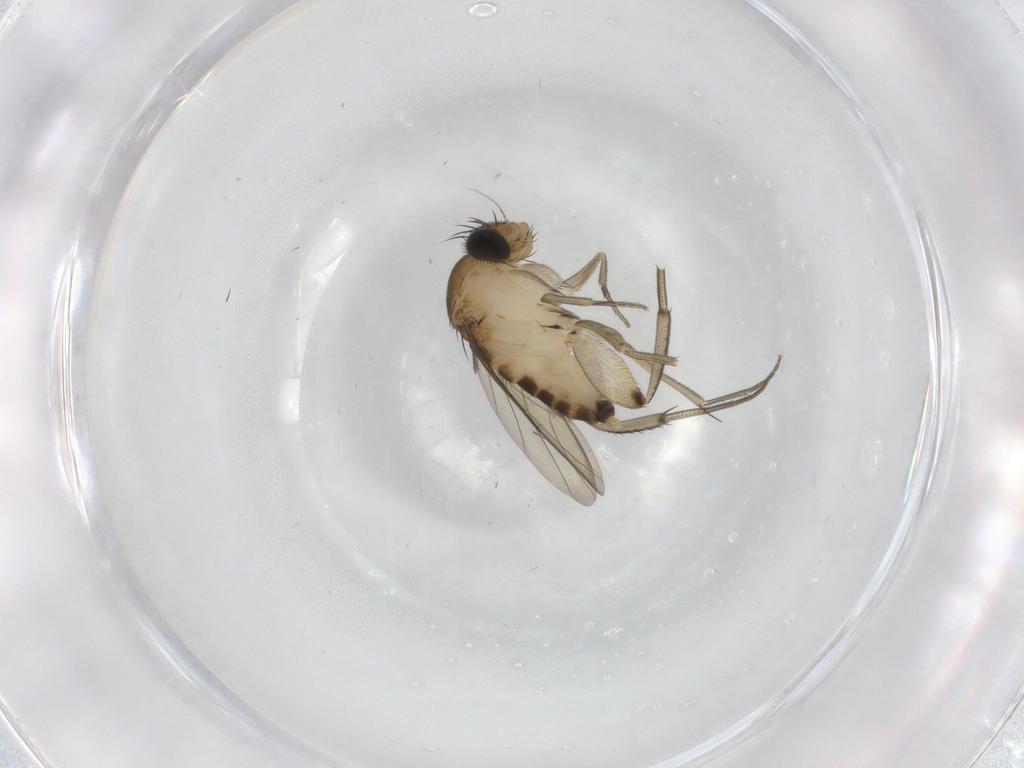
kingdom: Animalia
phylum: Arthropoda
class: Insecta
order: Diptera
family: Phoridae
